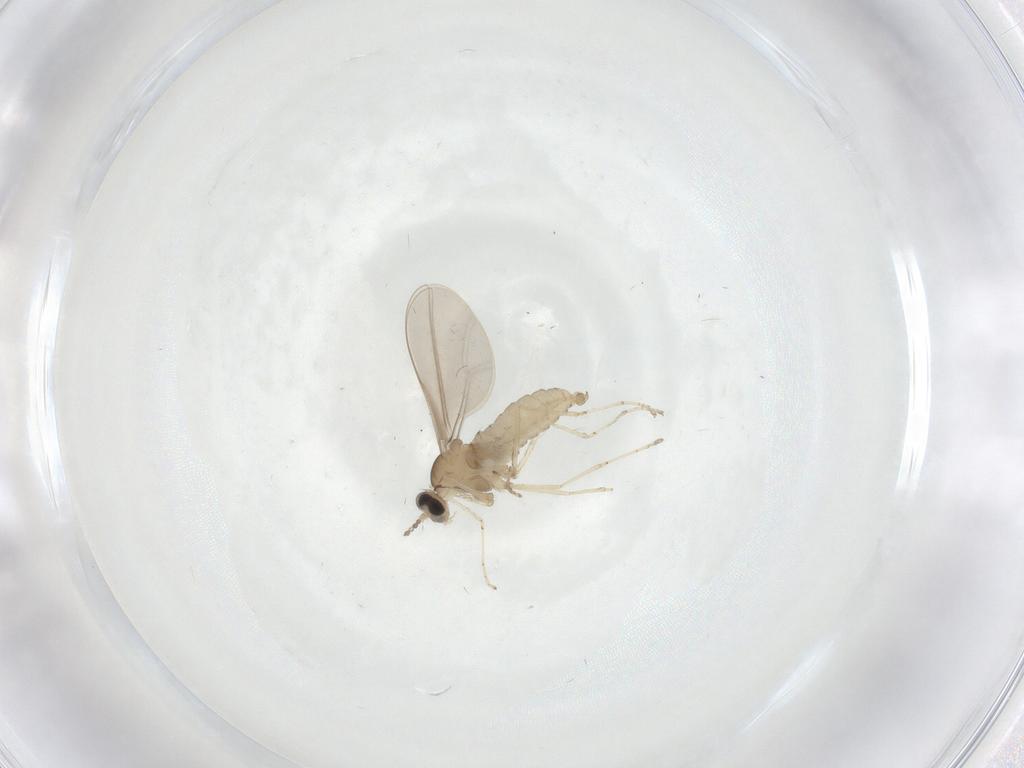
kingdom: Animalia
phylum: Arthropoda
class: Insecta
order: Diptera
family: Cecidomyiidae
